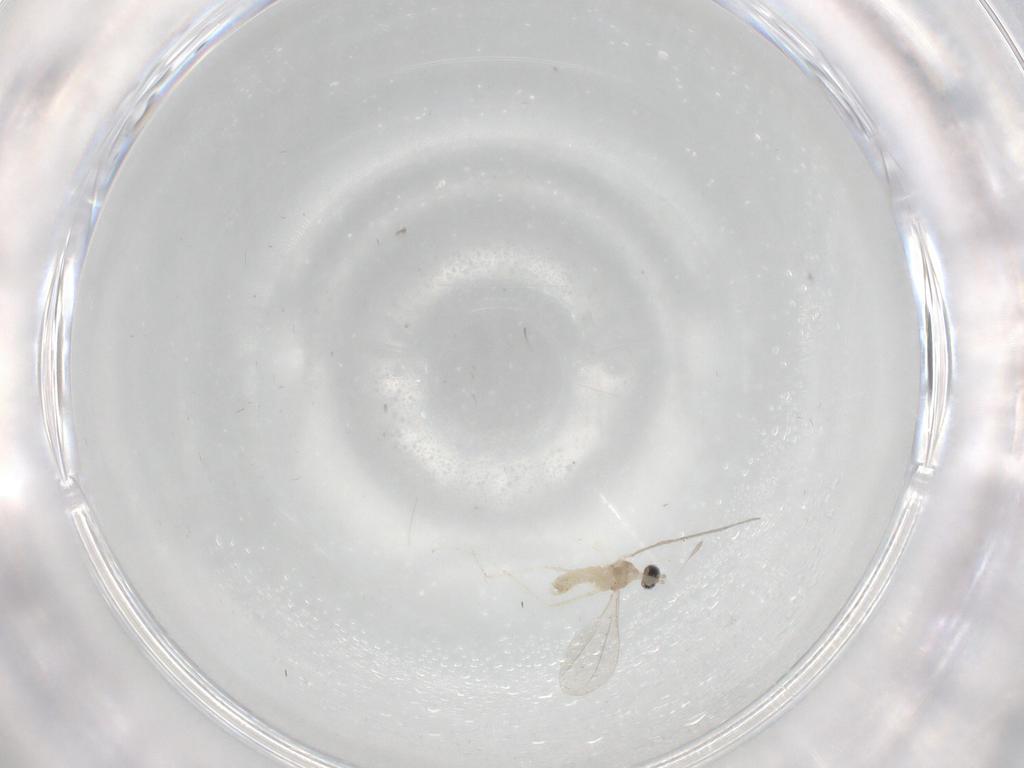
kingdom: Animalia
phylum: Arthropoda
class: Insecta
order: Diptera
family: Cecidomyiidae
